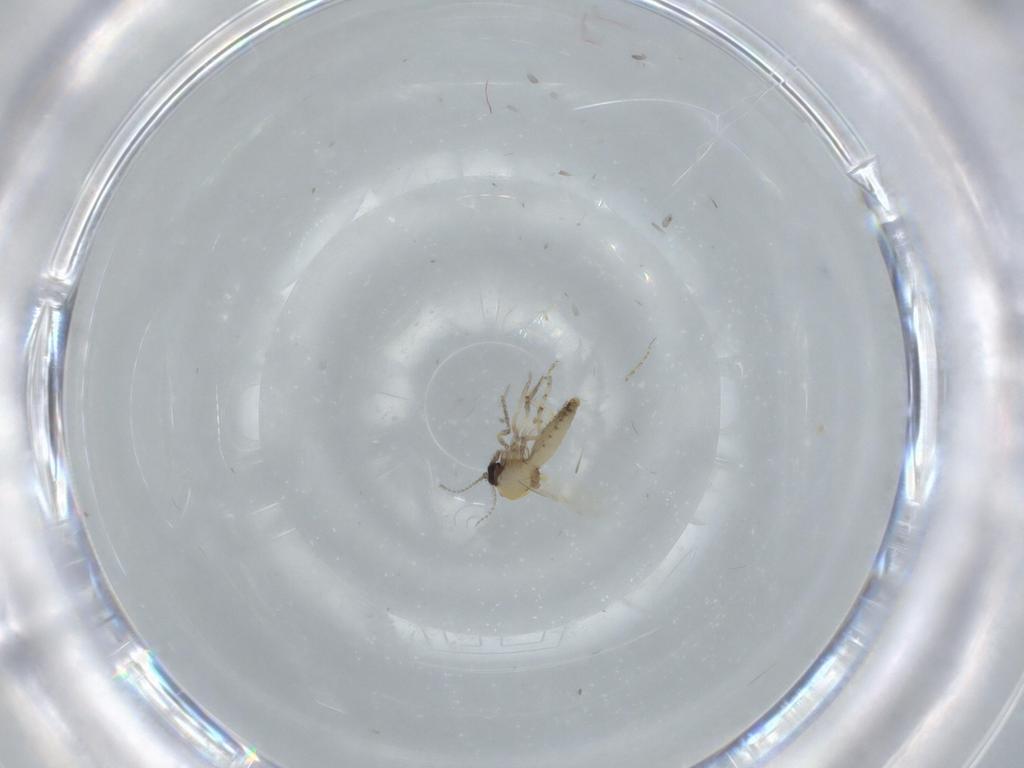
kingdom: Animalia
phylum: Arthropoda
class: Insecta
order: Diptera
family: Ceratopogonidae
